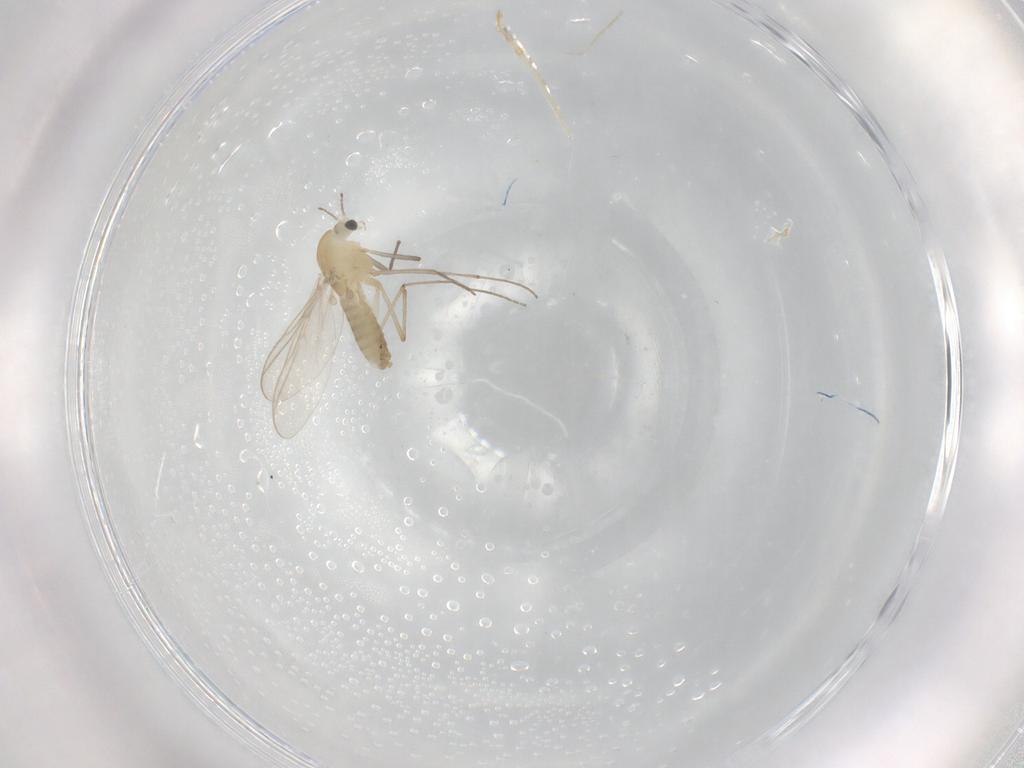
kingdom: Animalia
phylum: Arthropoda
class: Insecta
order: Diptera
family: Chironomidae
